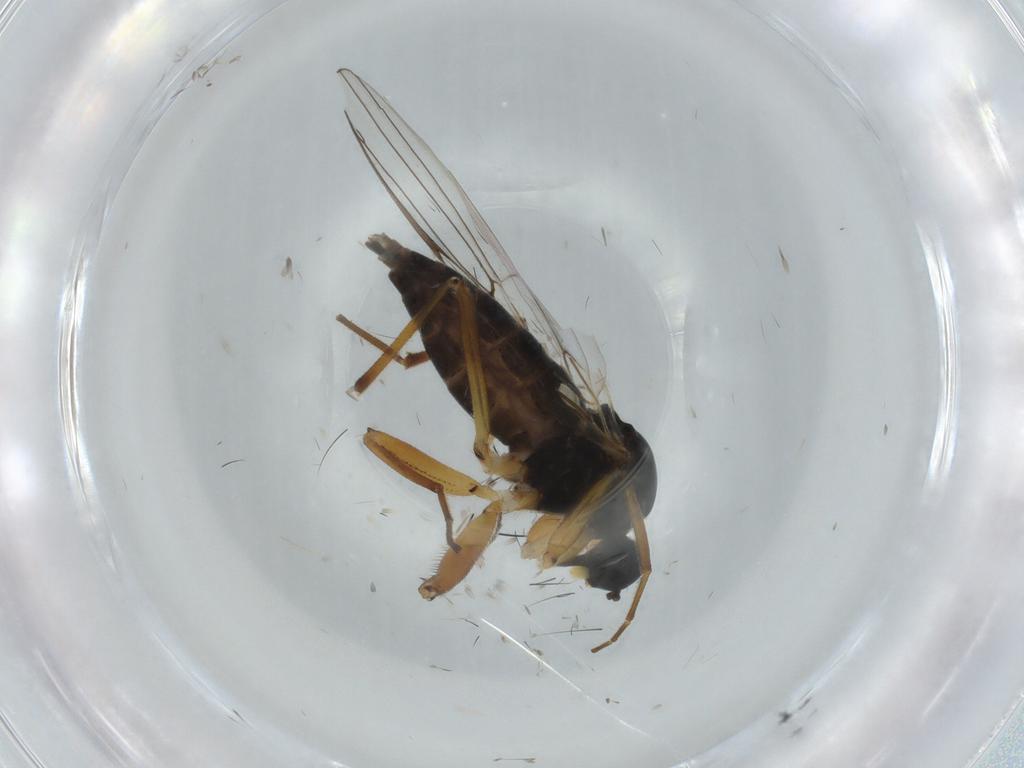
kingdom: Animalia
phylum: Arthropoda
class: Insecta
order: Diptera
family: Hybotidae
